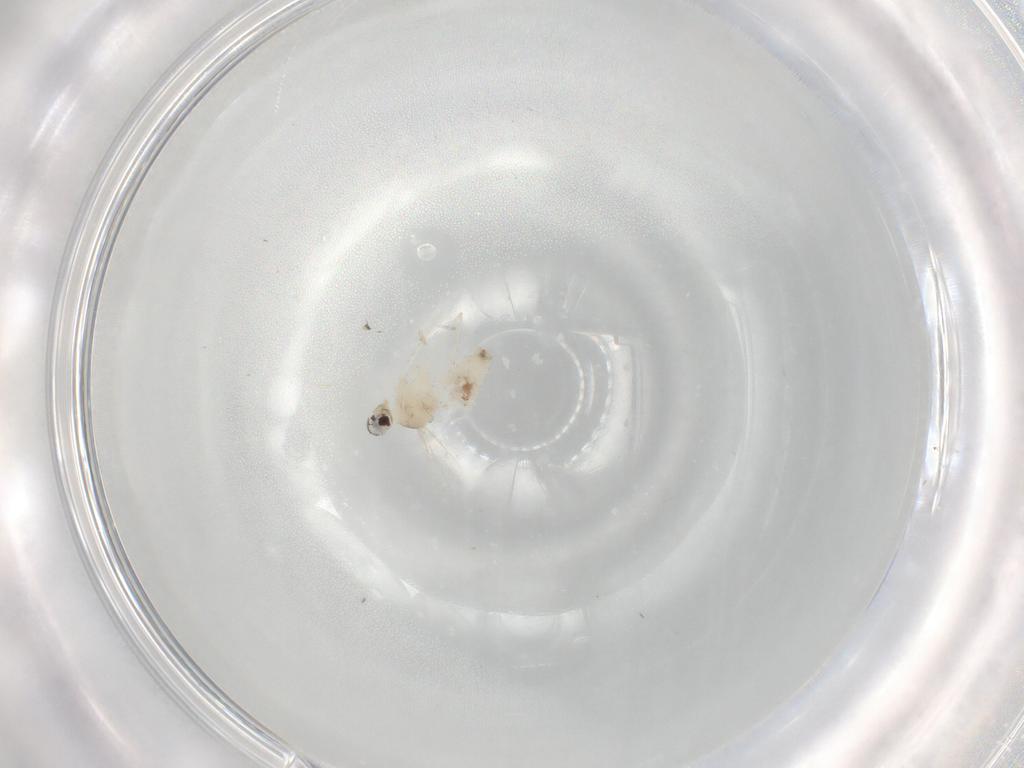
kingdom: Animalia
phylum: Arthropoda
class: Insecta
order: Diptera
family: Cecidomyiidae
